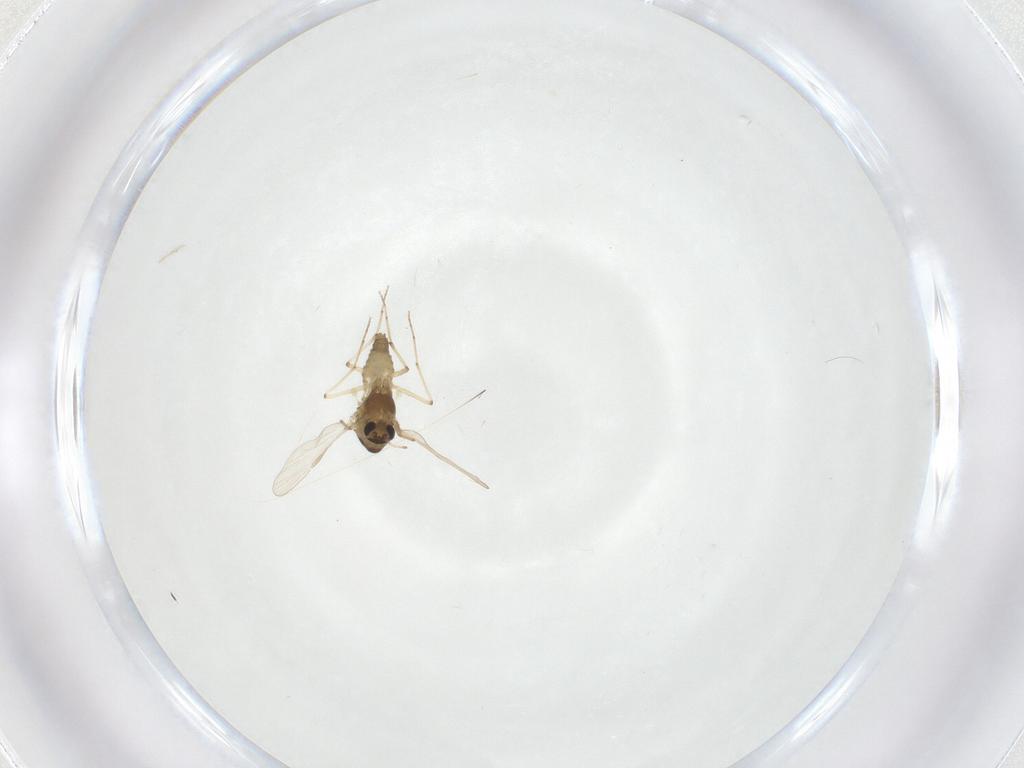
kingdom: Animalia
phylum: Arthropoda
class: Insecta
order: Diptera
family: Chironomidae
